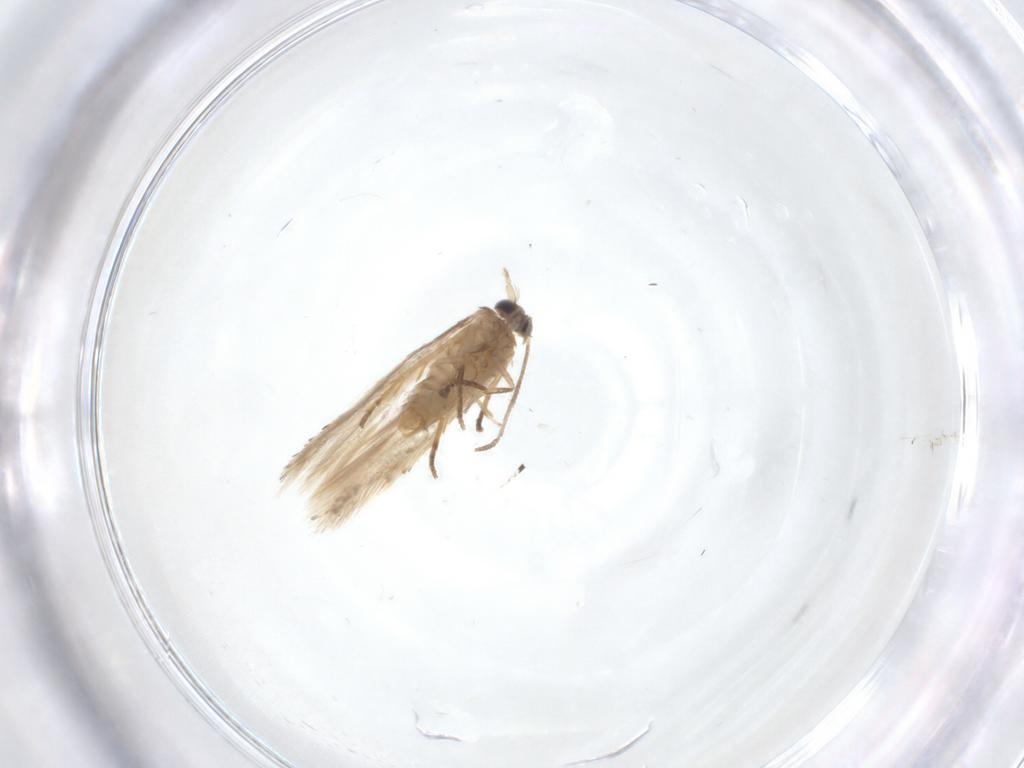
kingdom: Animalia
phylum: Arthropoda
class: Insecta
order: Lepidoptera
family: Nepticulidae
